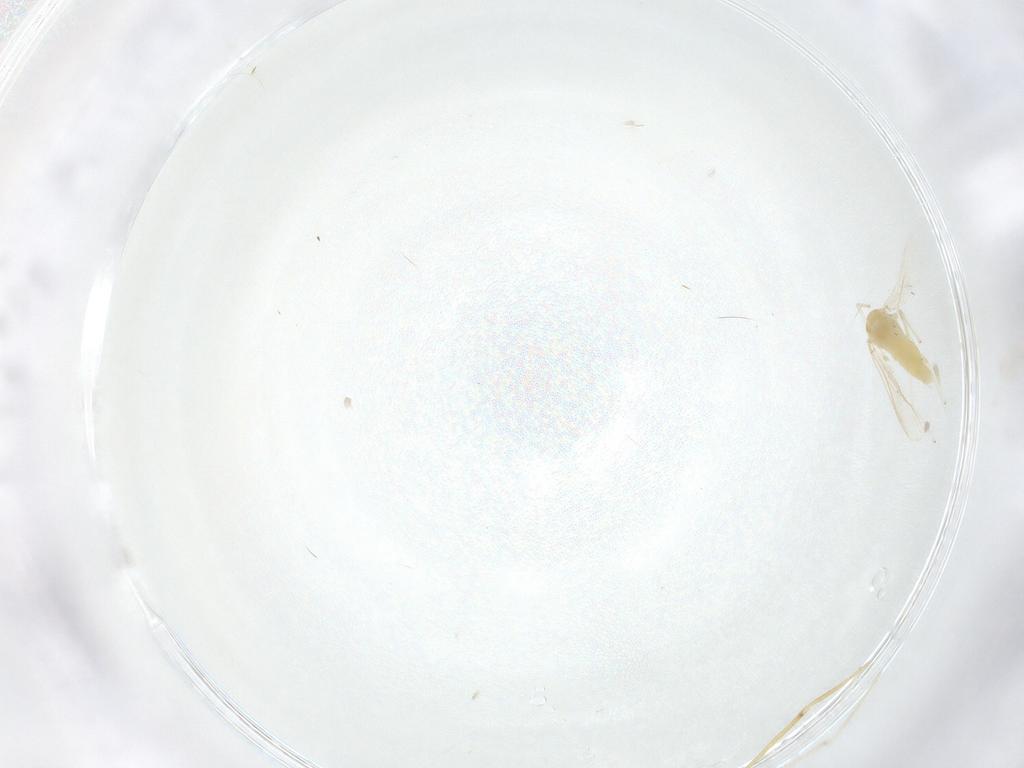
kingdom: Animalia
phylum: Arthropoda
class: Insecta
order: Diptera
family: Chironomidae
